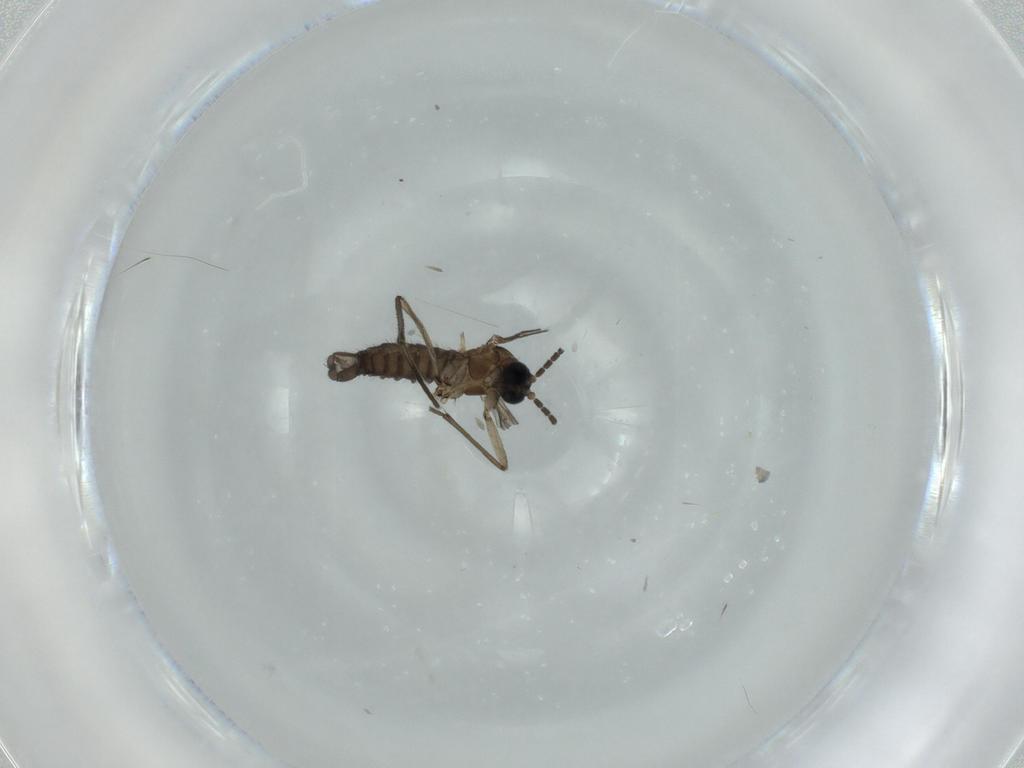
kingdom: Animalia
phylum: Arthropoda
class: Insecta
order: Diptera
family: Sciaridae
